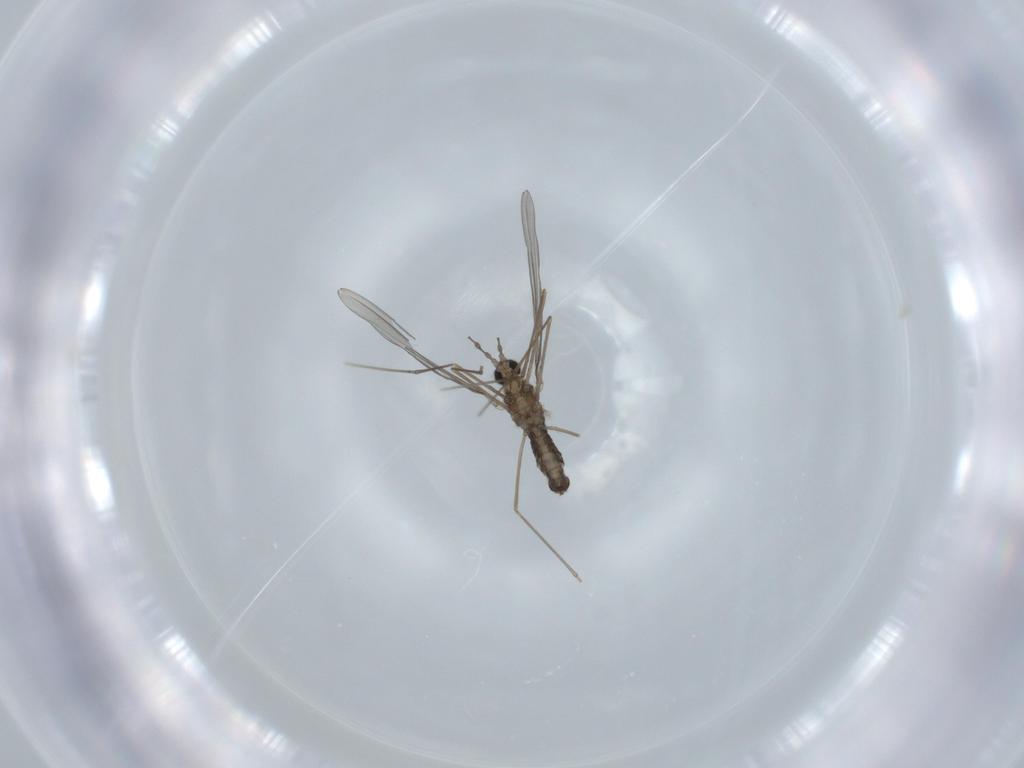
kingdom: Animalia
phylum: Arthropoda
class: Insecta
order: Diptera
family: Cecidomyiidae
